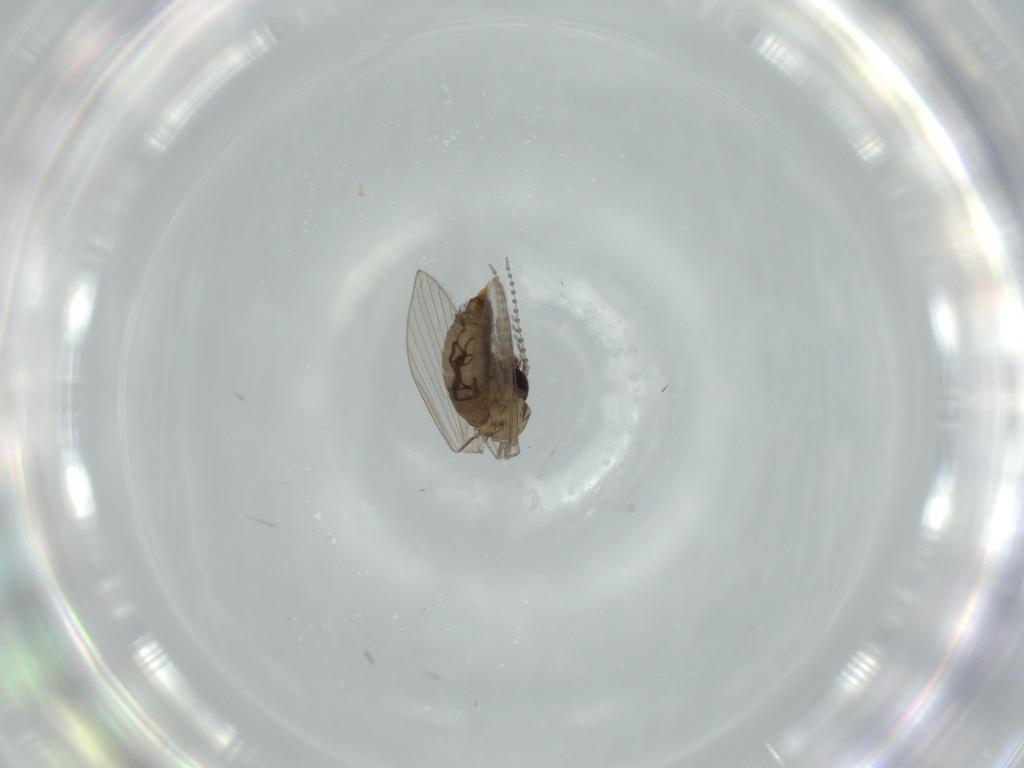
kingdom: Animalia
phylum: Arthropoda
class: Insecta
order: Diptera
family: Psychodidae
